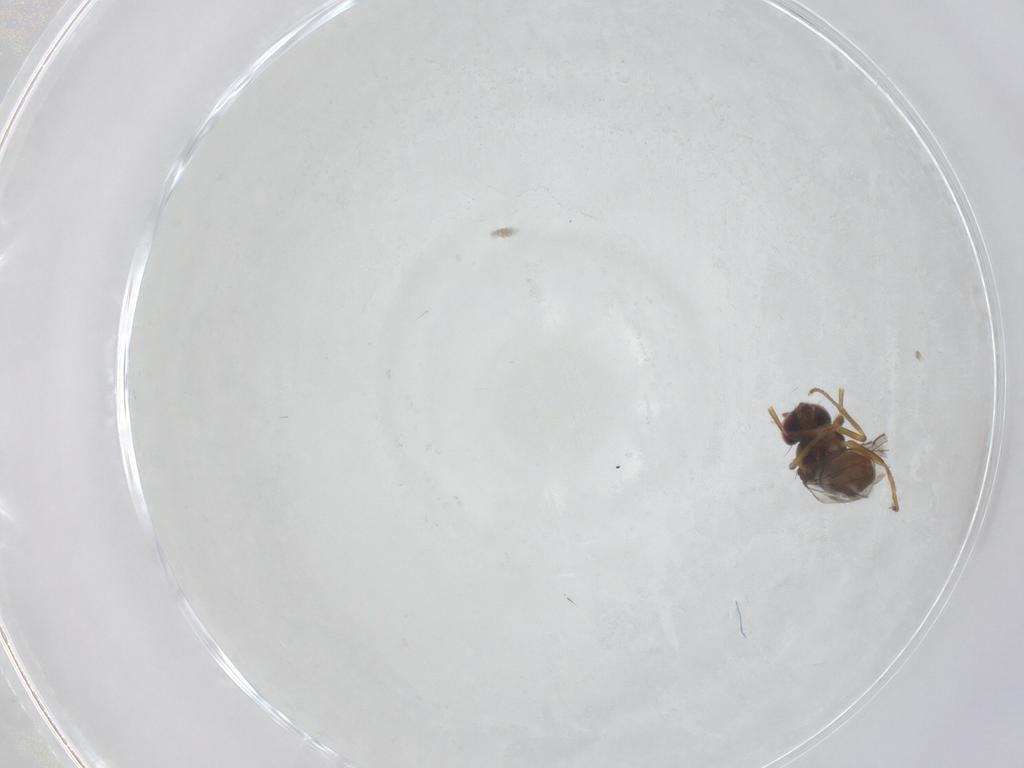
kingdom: Animalia
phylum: Arthropoda
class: Insecta
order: Diptera
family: Ephydridae
